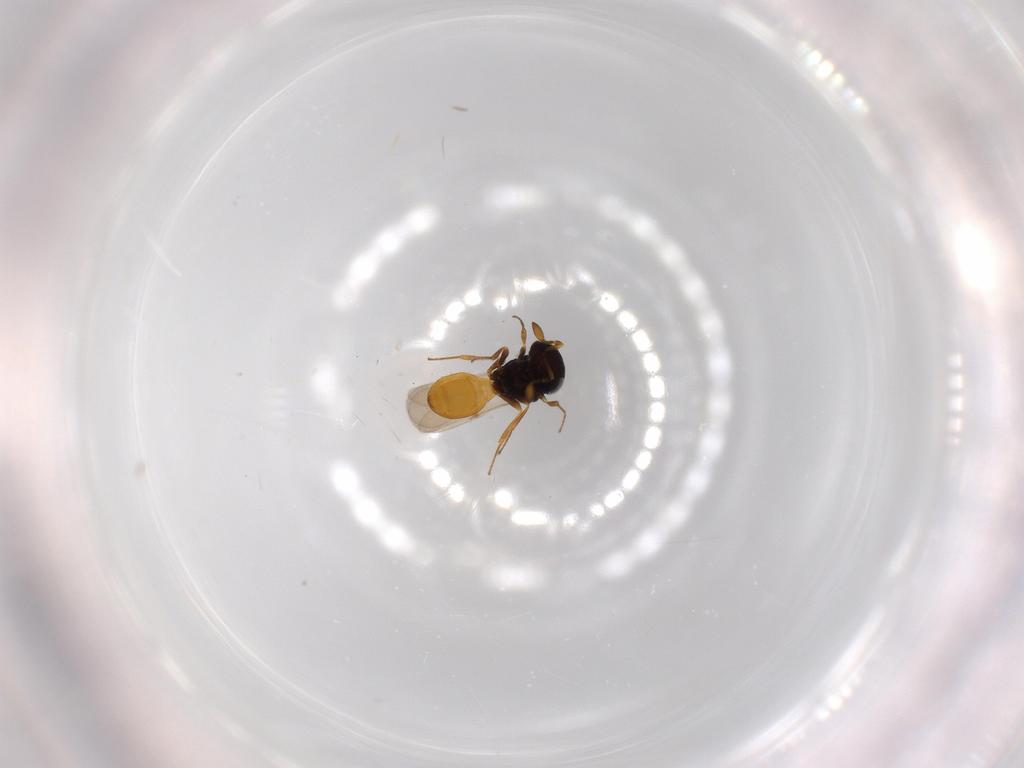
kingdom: Animalia
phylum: Arthropoda
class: Insecta
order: Hymenoptera
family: Scelionidae
